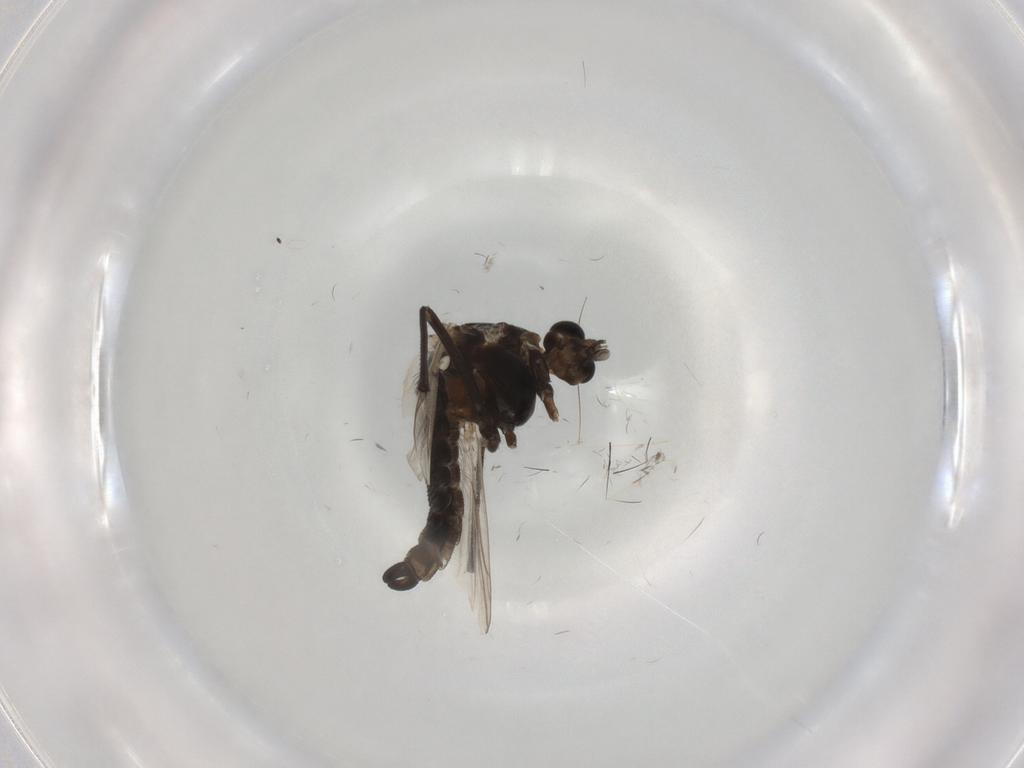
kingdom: Animalia
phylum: Arthropoda
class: Insecta
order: Diptera
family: Chironomidae
